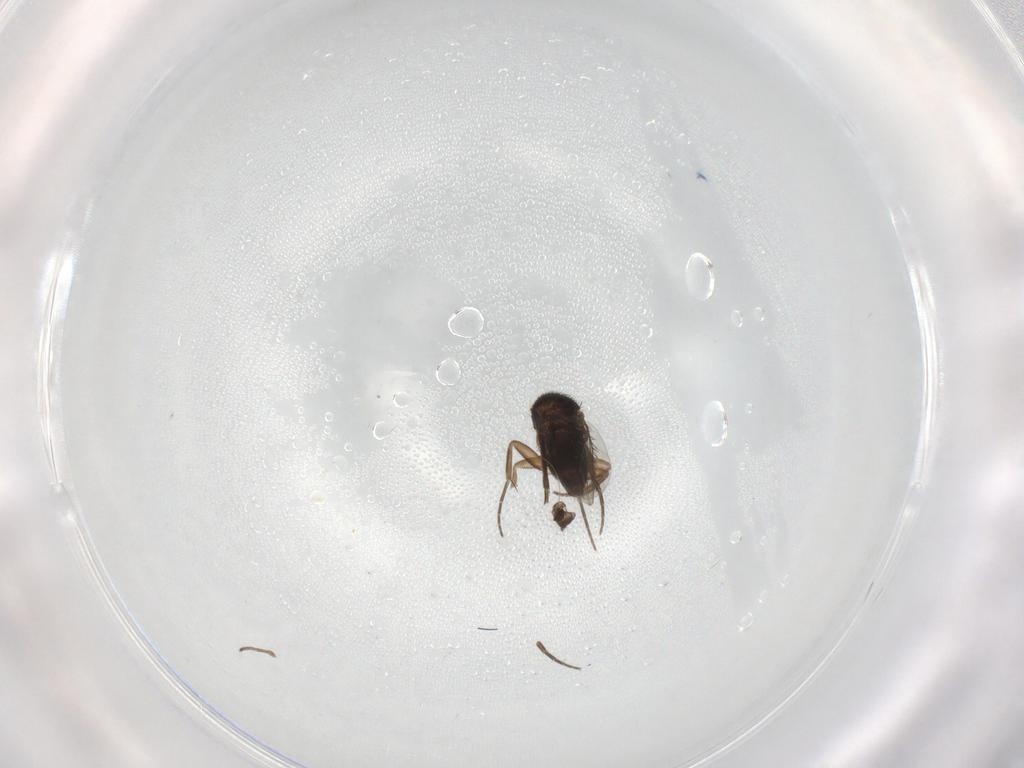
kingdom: Animalia
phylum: Arthropoda
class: Insecta
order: Diptera
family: Phoridae
